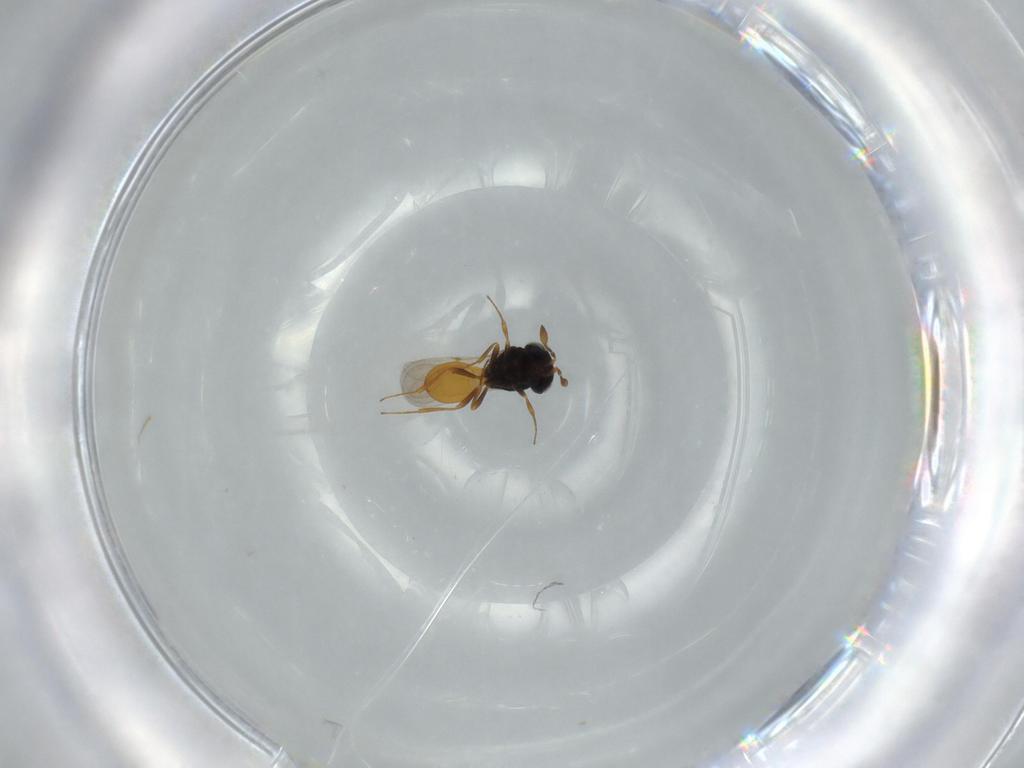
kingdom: Animalia
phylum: Arthropoda
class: Insecta
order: Hymenoptera
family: Scelionidae
